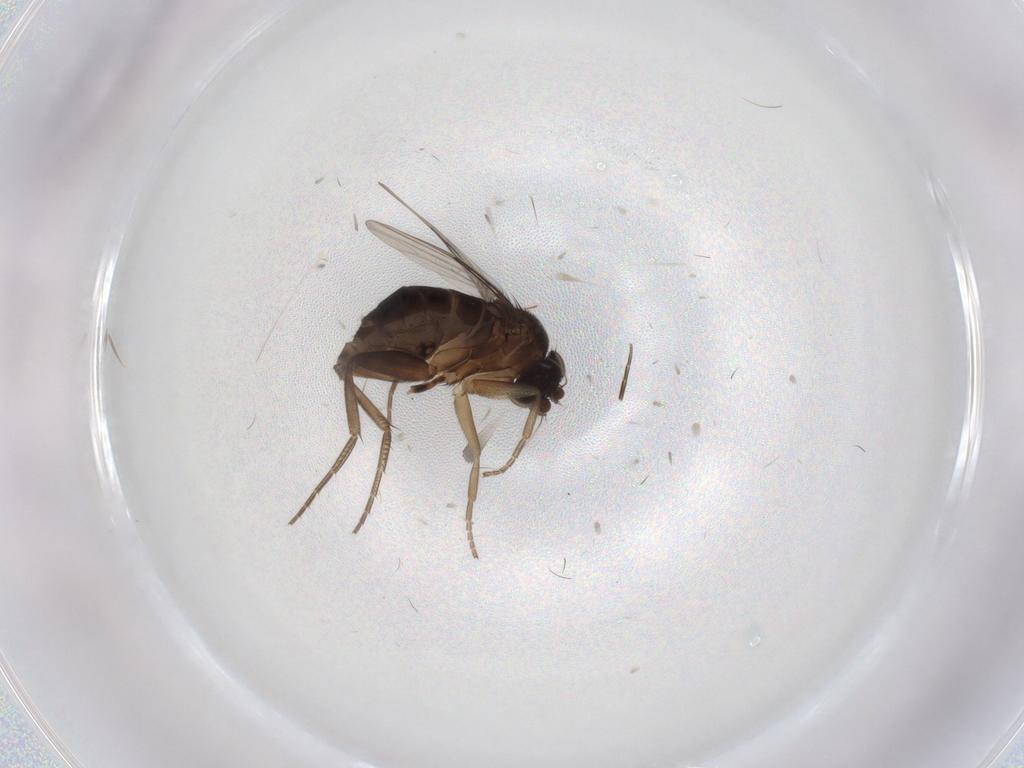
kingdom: Animalia
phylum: Arthropoda
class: Insecta
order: Diptera
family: Phoridae
